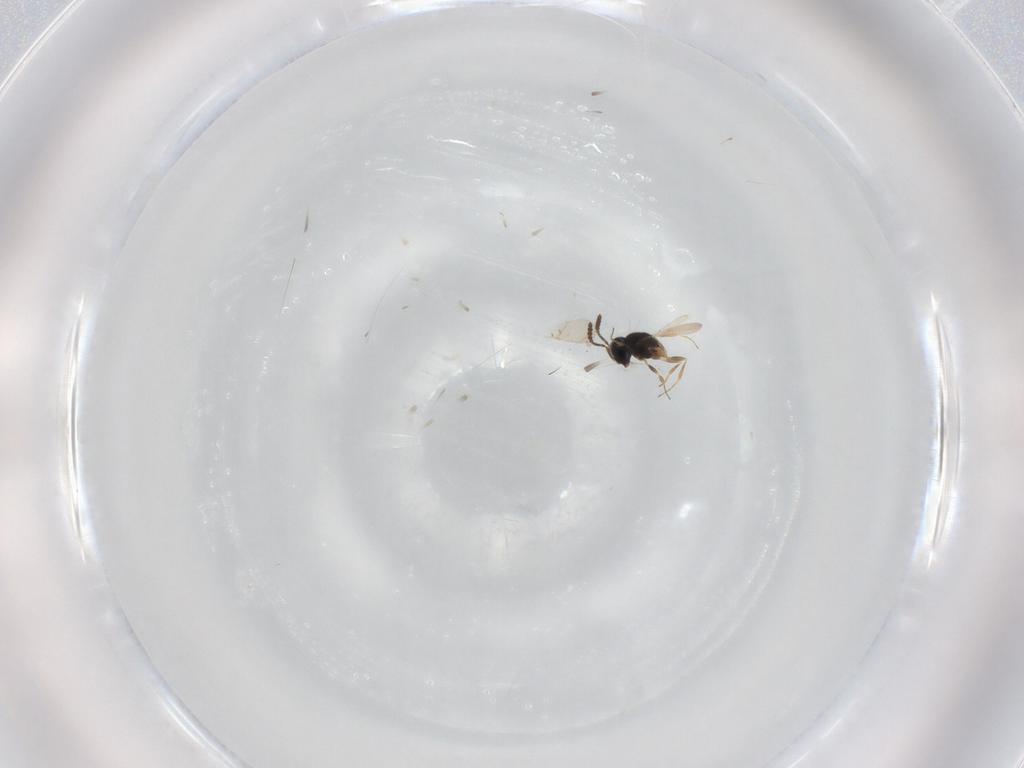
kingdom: Animalia
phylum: Arthropoda
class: Insecta
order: Hymenoptera
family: Scelionidae
